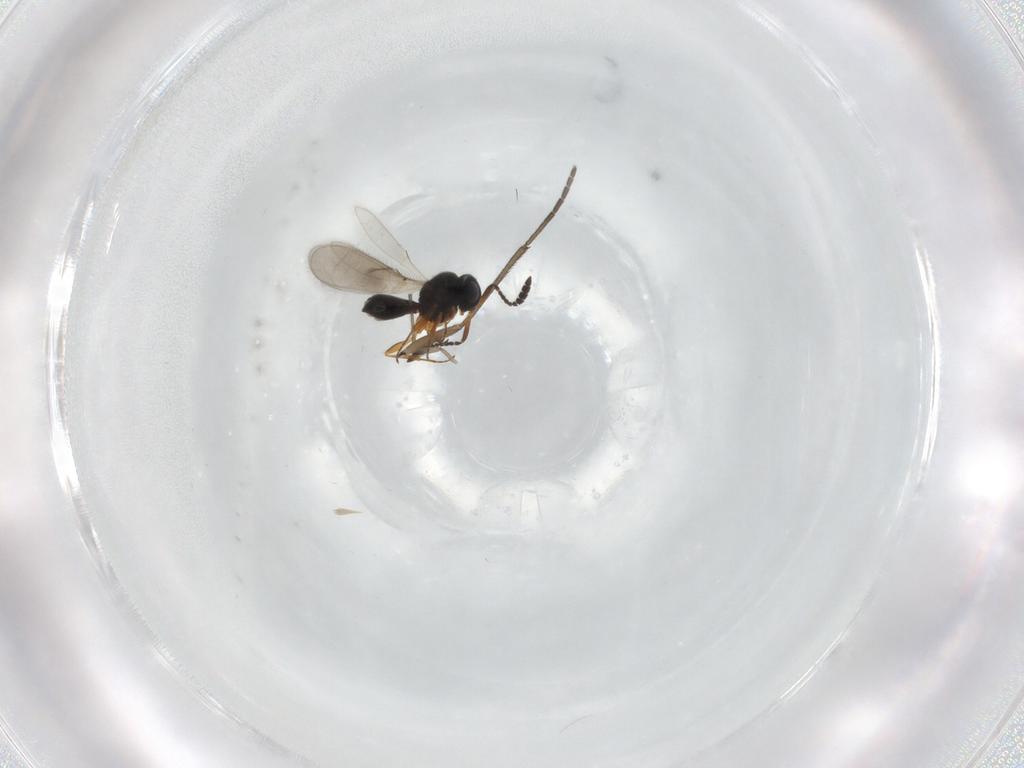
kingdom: Animalia
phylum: Arthropoda
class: Insecta
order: Hymenoptera
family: Scelionidae
